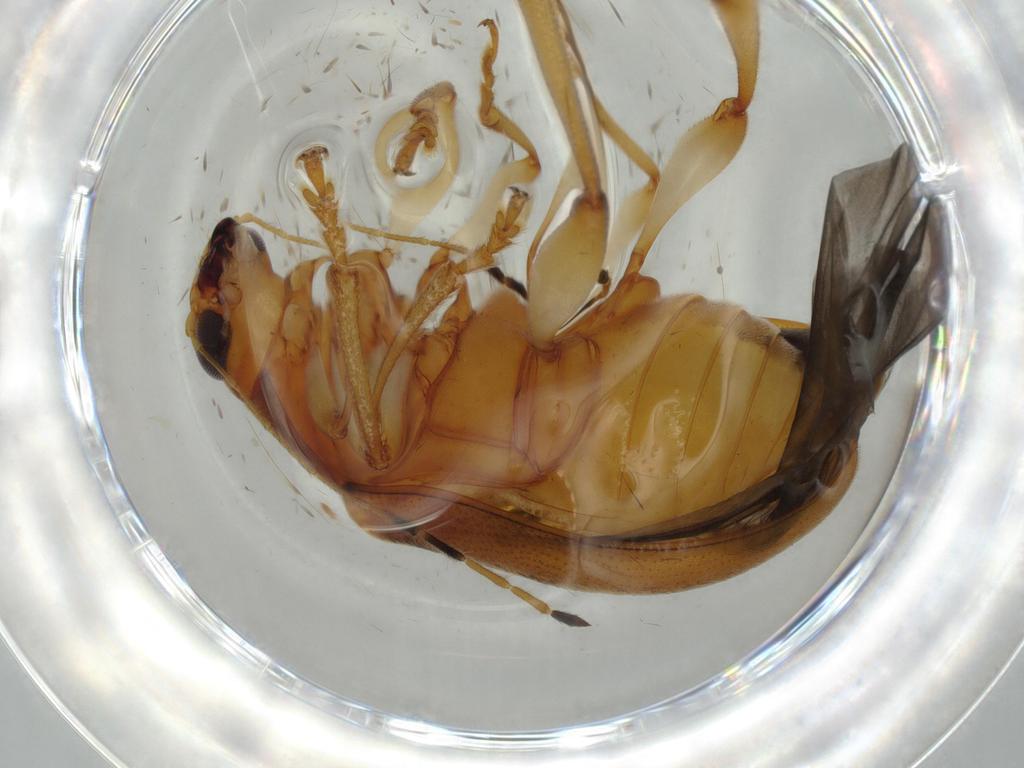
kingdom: Animalia
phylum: Arthropoda
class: Insecta
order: Coleoptera
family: Chrysomelidae
